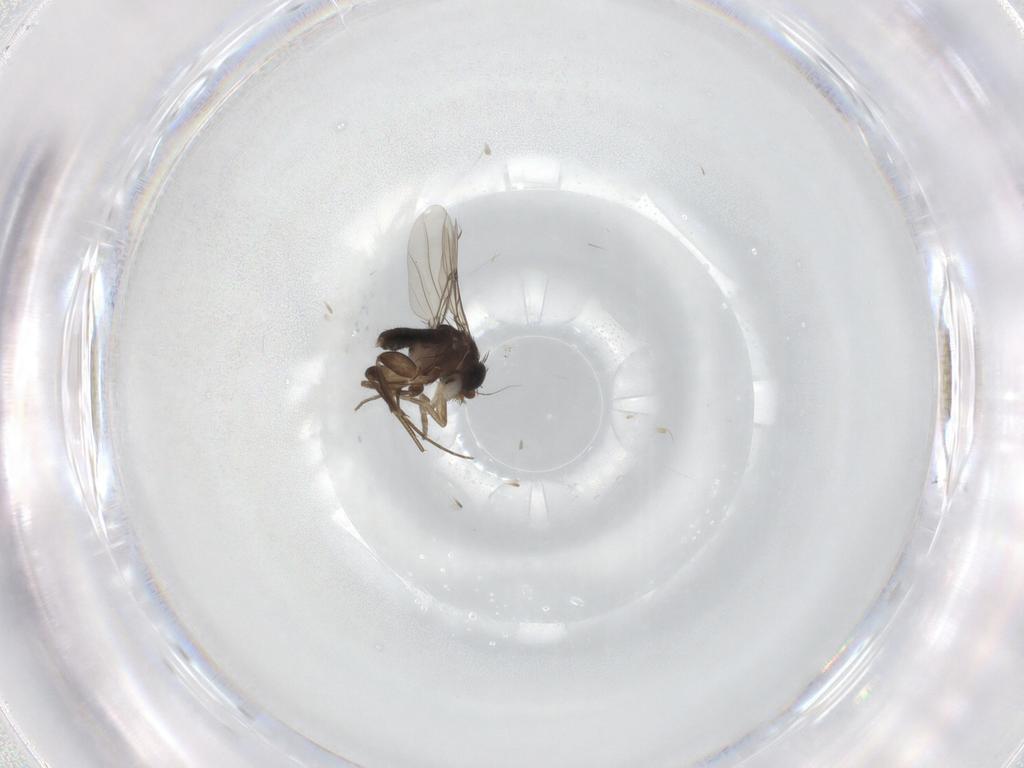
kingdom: Animalia
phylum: Arthropoda
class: Insecta
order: Diptera
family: Phoridae
